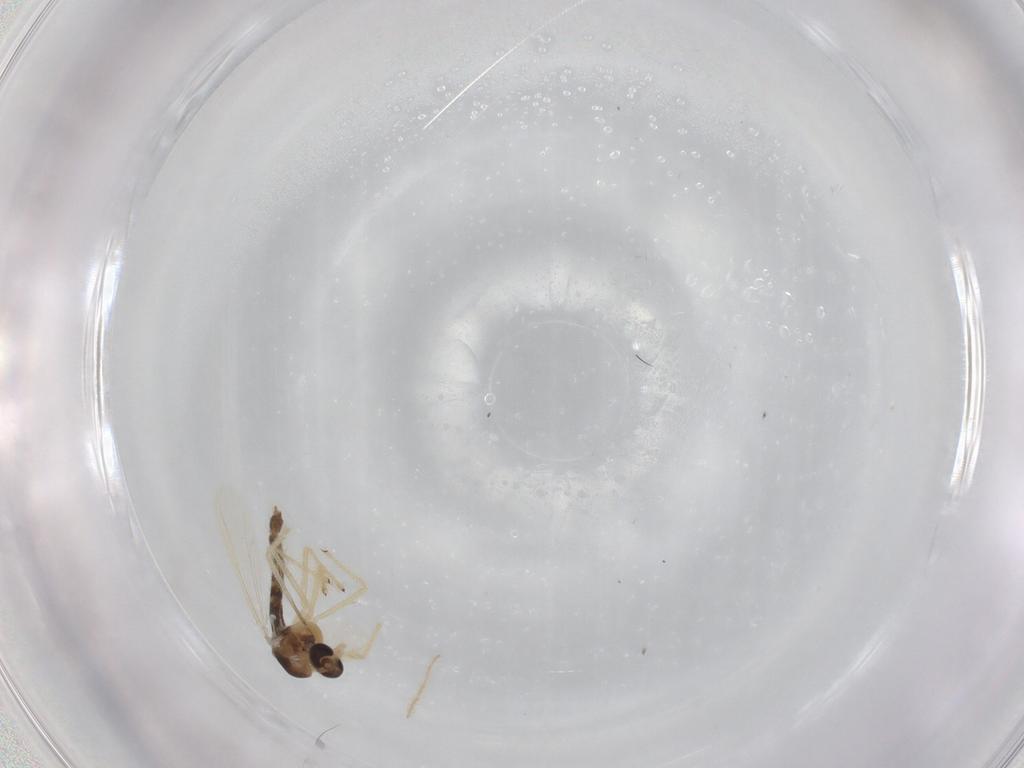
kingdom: Animalia
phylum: Arthropoda
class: Insecta
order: Diptera
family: Chironomidae
